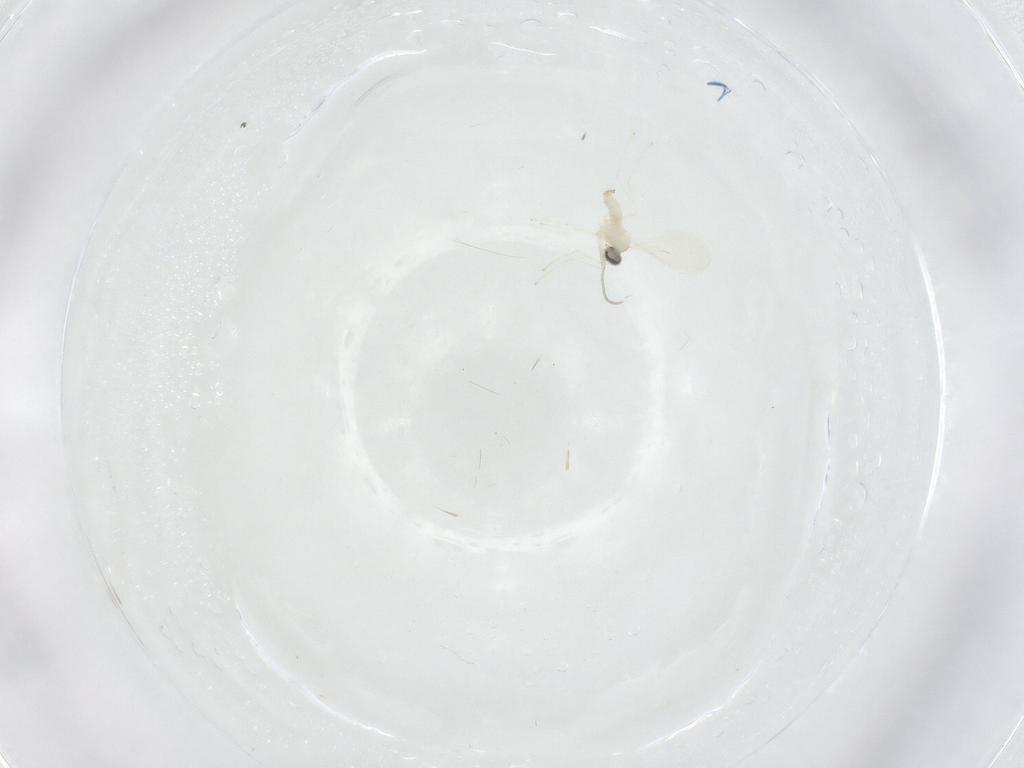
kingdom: Animalia
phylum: Arthropoda
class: Insecta
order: Diptera
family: Cecidomyiidae
